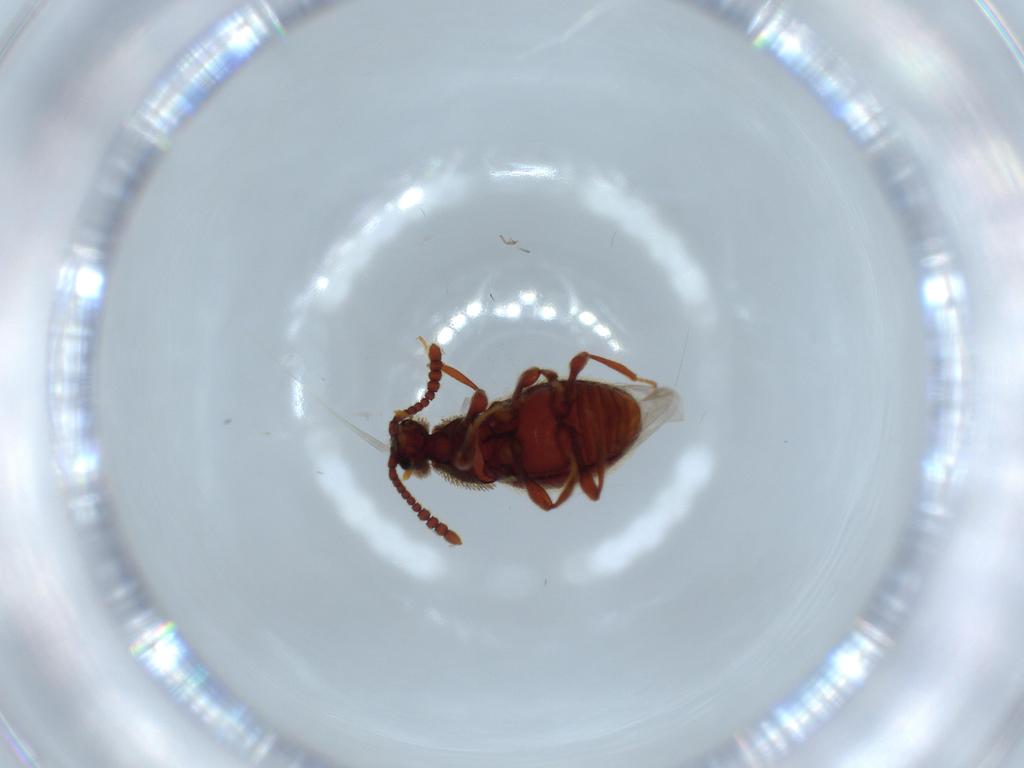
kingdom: Animalia
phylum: Arthropoda
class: Insecta
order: Coleoptera
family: Staphylinidae
